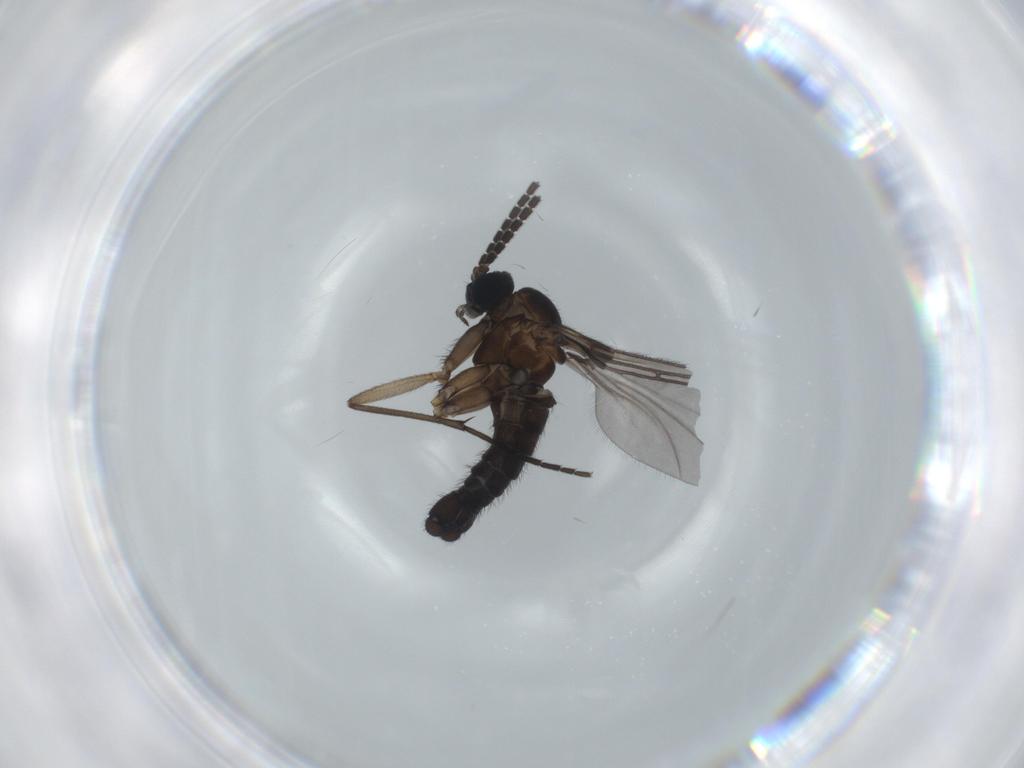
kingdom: Animalia
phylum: Arthropoda
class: Insecta
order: Diptera
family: Sciaridae
